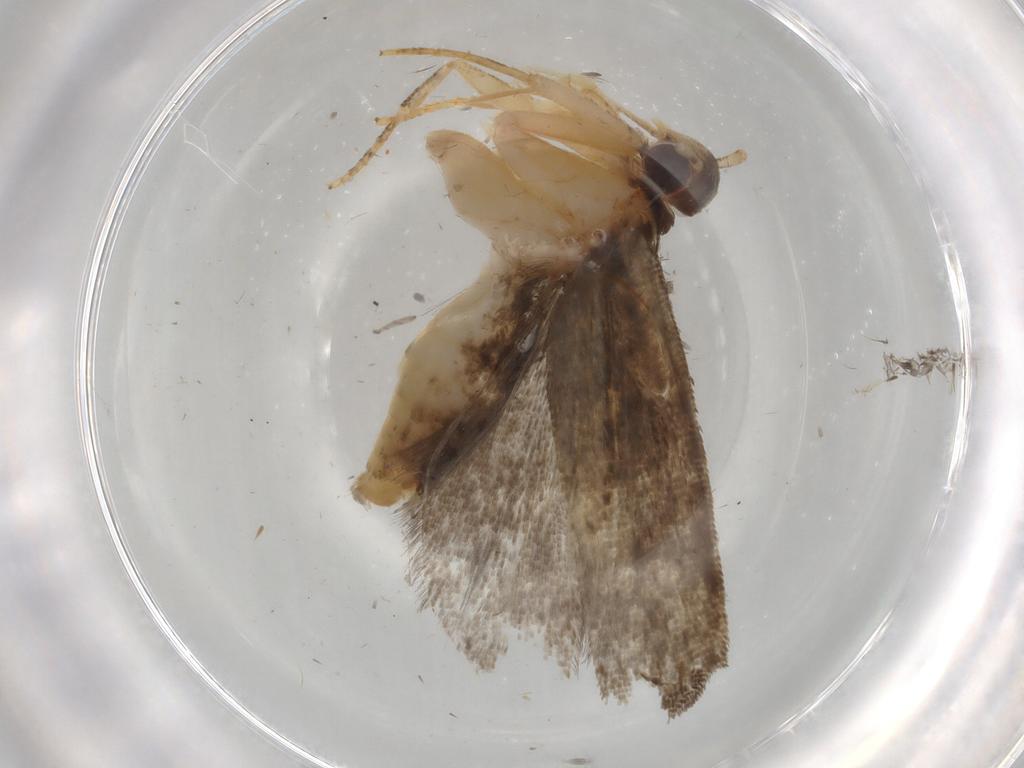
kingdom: Animalia
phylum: Arthropoda
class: Insecta
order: Lepidoptera
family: Gelechiidae
